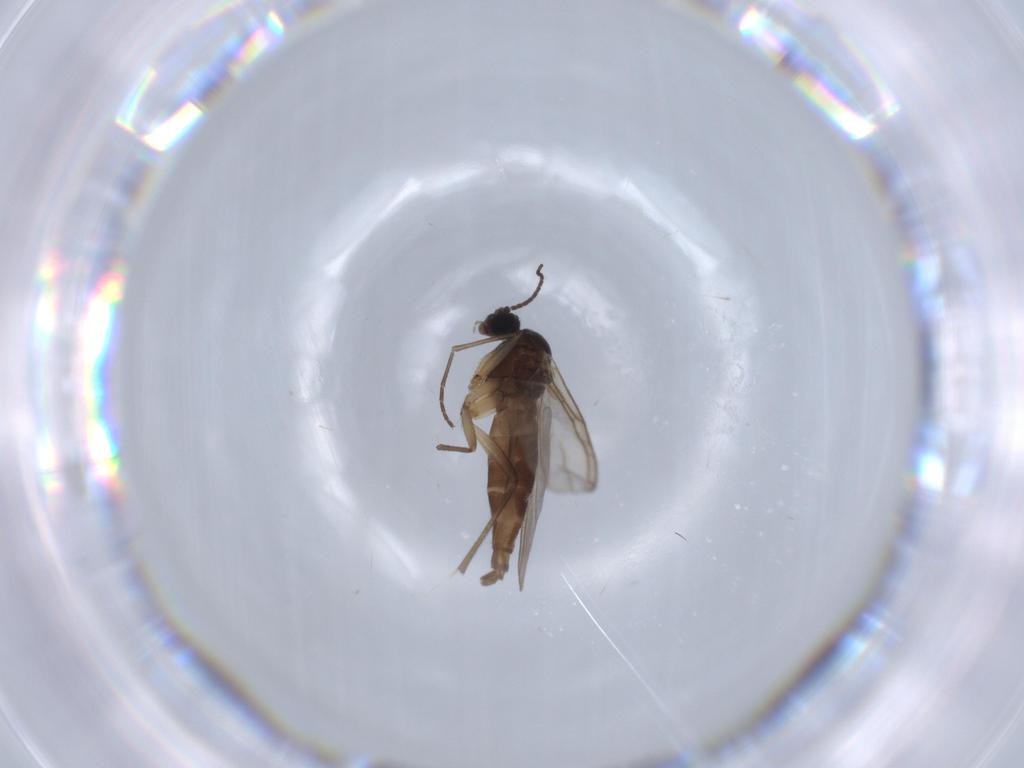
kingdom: Animalia
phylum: Arthropoda
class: Insecta
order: Diptera
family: Sciaridae
